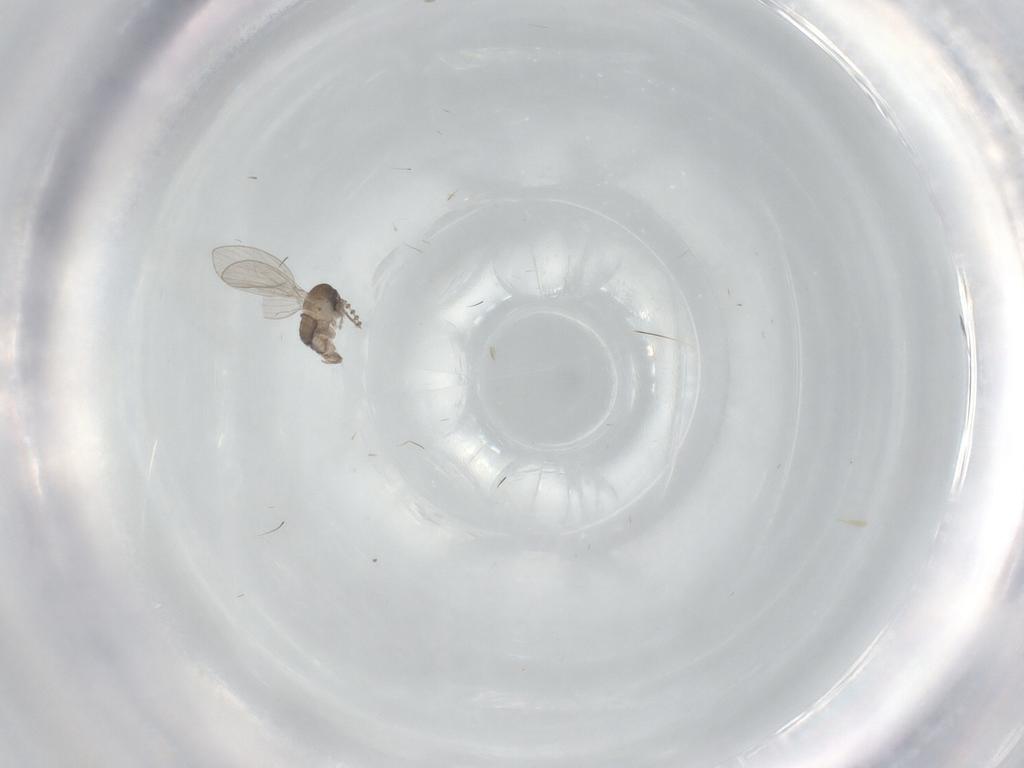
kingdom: Animalia
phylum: Arthropoda
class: Insecta
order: Diptera
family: Psychodidae
